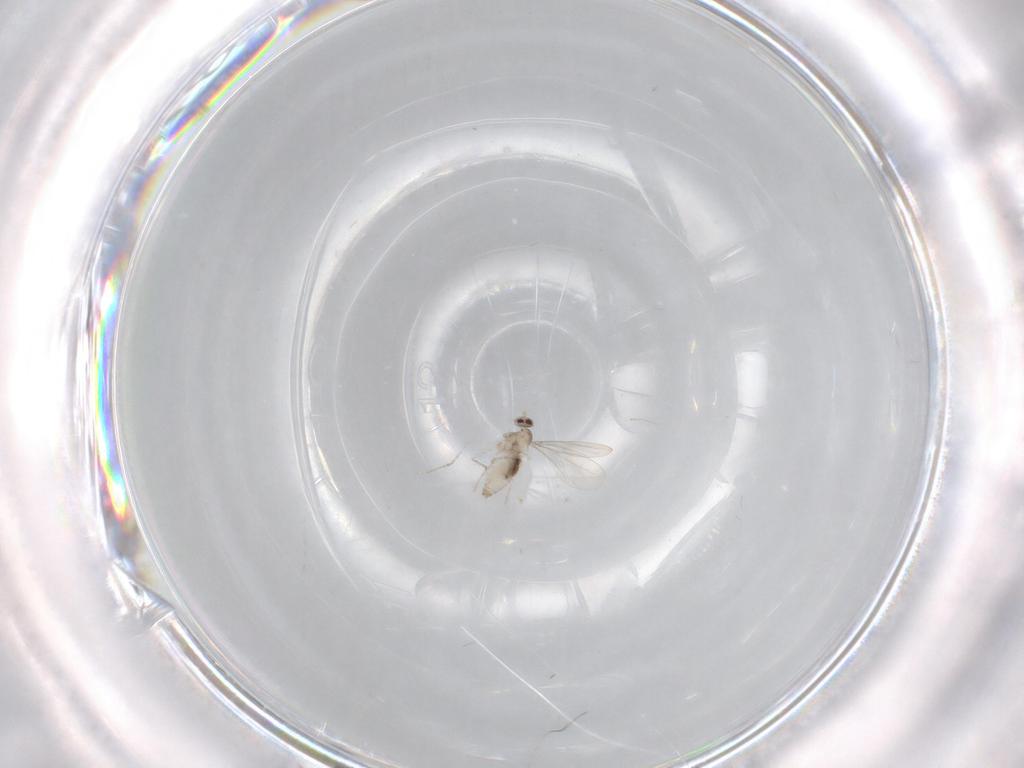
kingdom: Animalia
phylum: Arthropoda
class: Insecta
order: Diptera
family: Cecidomyiidae
